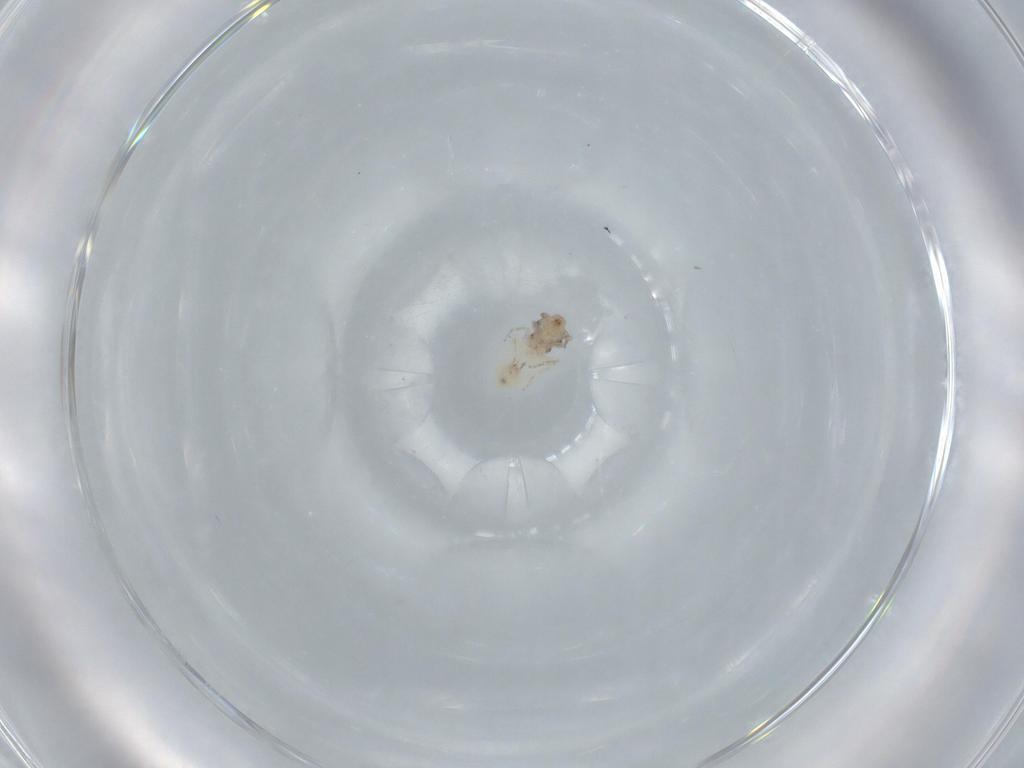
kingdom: Animalia
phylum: Arthropoda
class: Insecta
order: Psocodea
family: Lepidopsocidae
